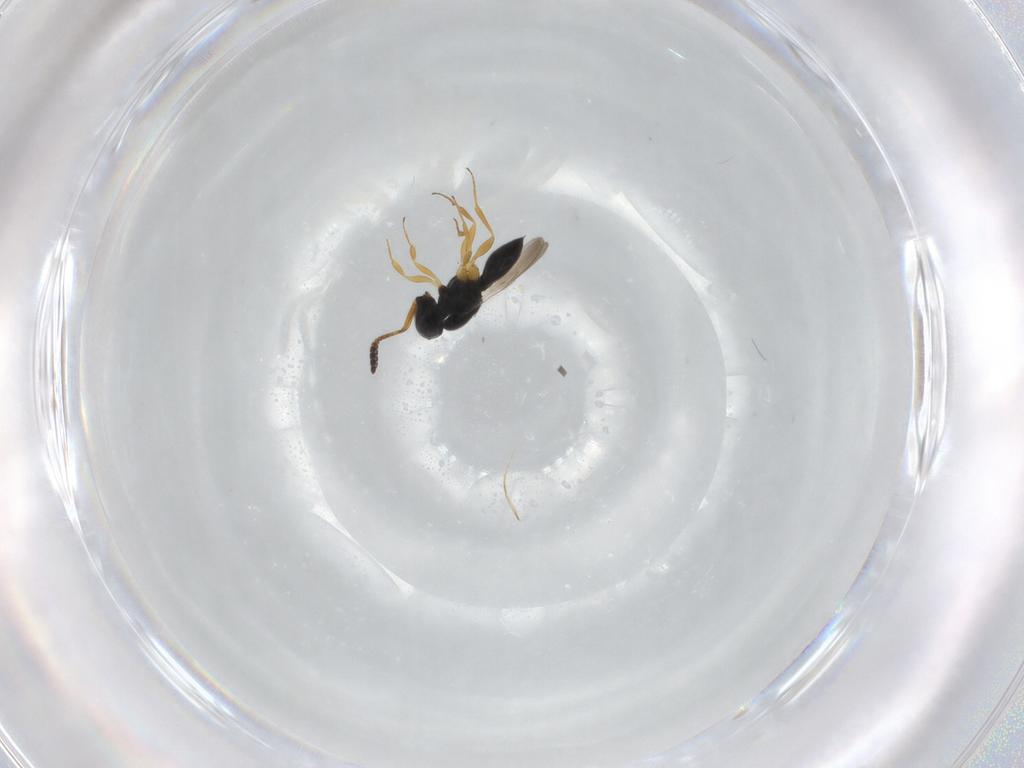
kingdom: Animalia
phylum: Arthropoda
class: Insecta
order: Hymenoptera
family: Scelionidae
